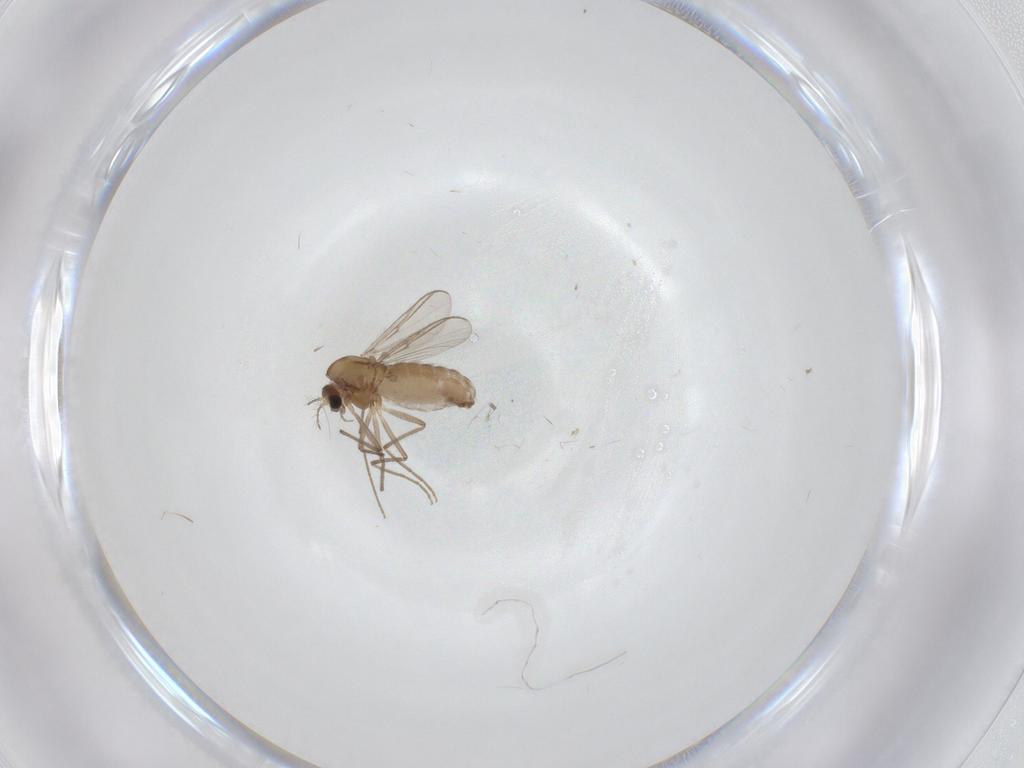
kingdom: Animalia
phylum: Arthropoda
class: Insecta
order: Diptera
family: Chironomidae
